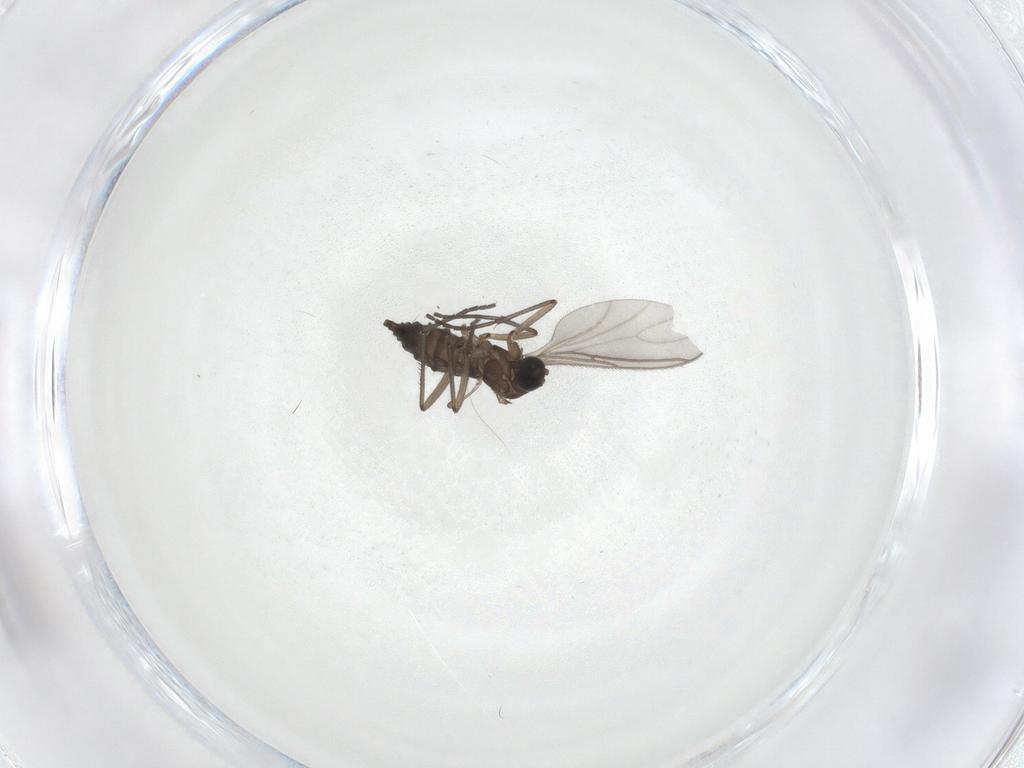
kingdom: Animalia
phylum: Arthropoda
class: Insecta
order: Diptera
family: Sciaridae
